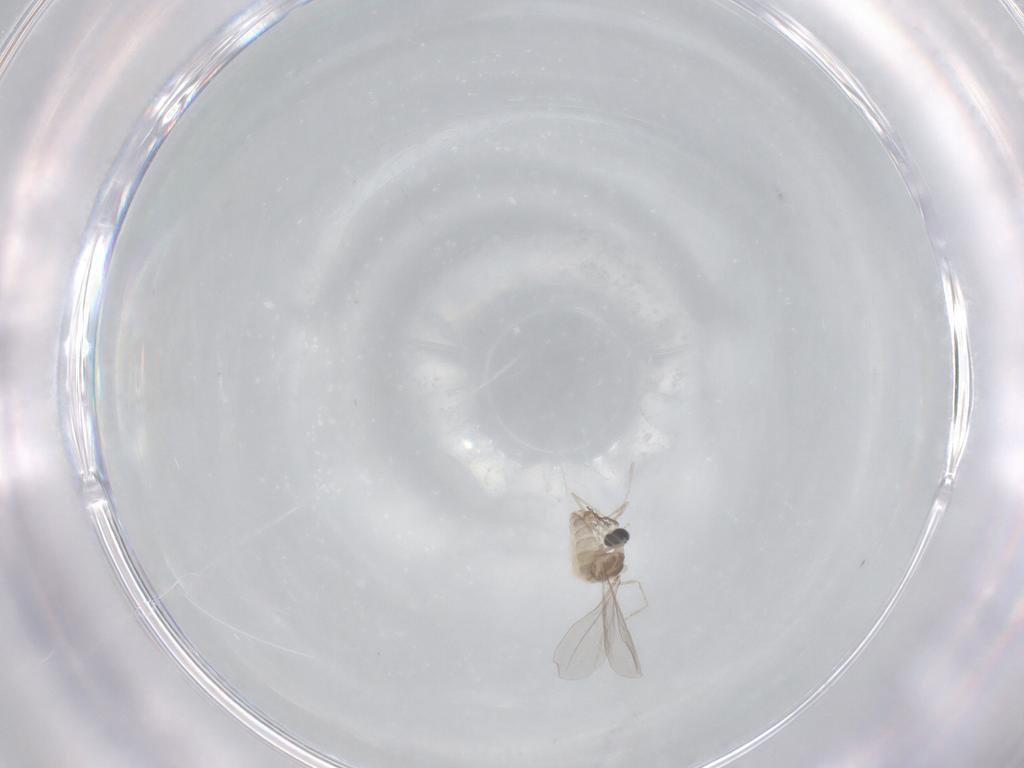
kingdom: Animalia
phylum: Arthropoda
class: Insecta
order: Diptera
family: Cecidomyiidae
